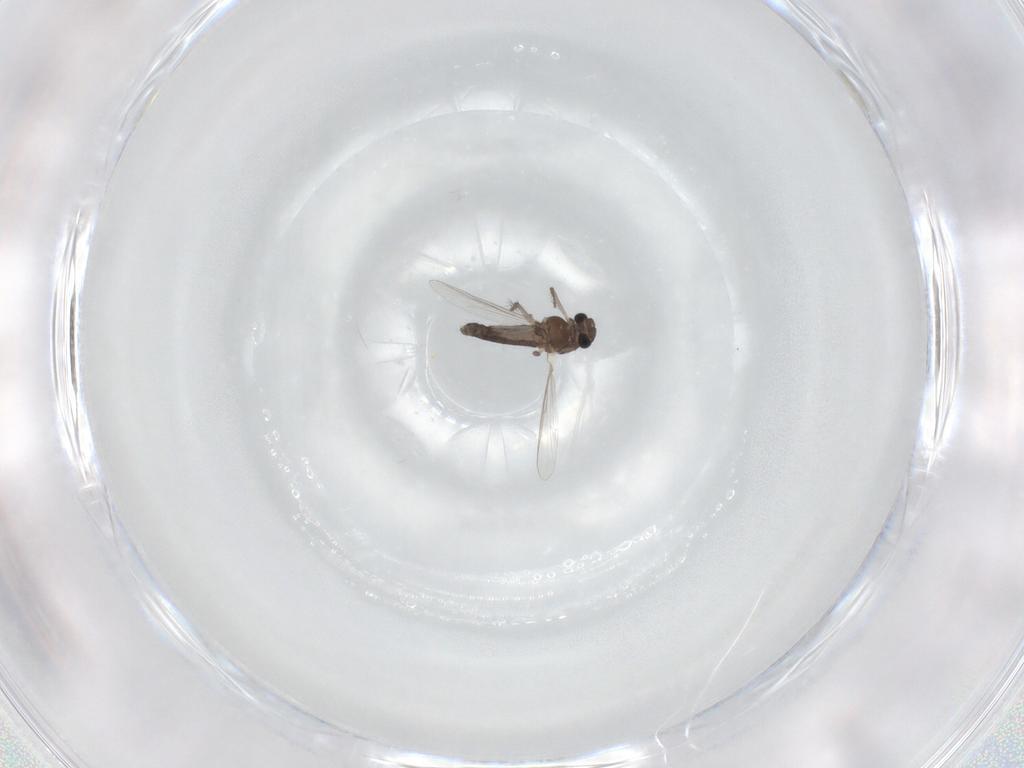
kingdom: Animalia
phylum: Arthropoda
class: Insecta
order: Diptera
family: Chironomidae
